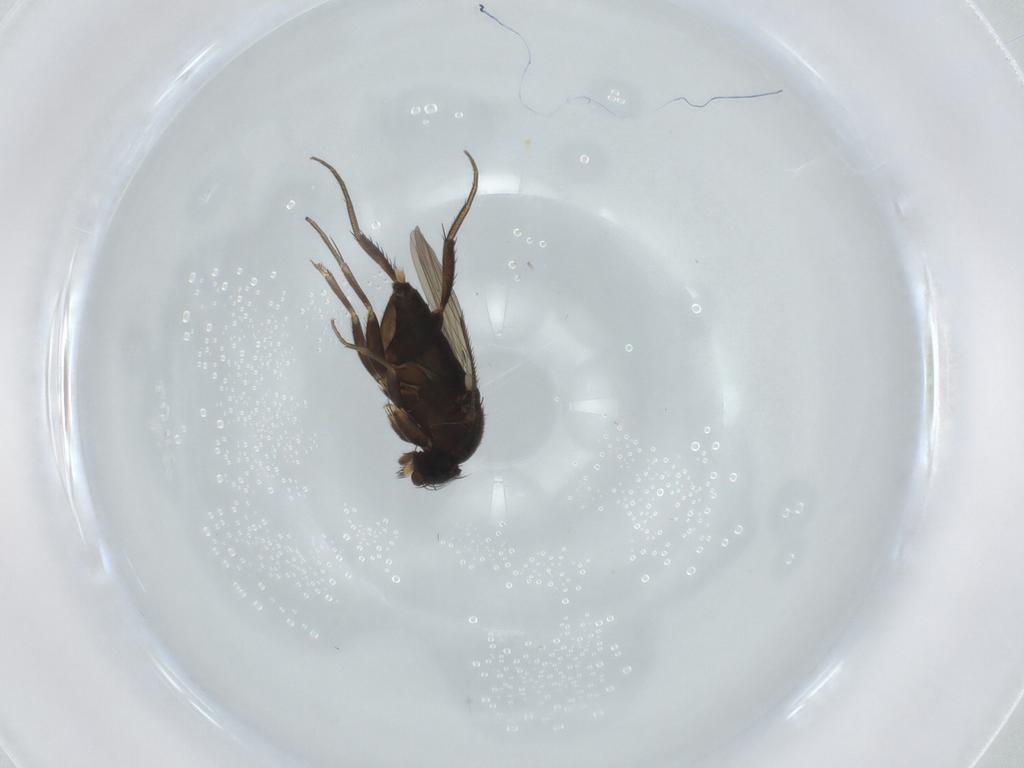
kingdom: Animalia
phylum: Arthropoda
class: Insecta
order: Diptera
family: Phoridae
